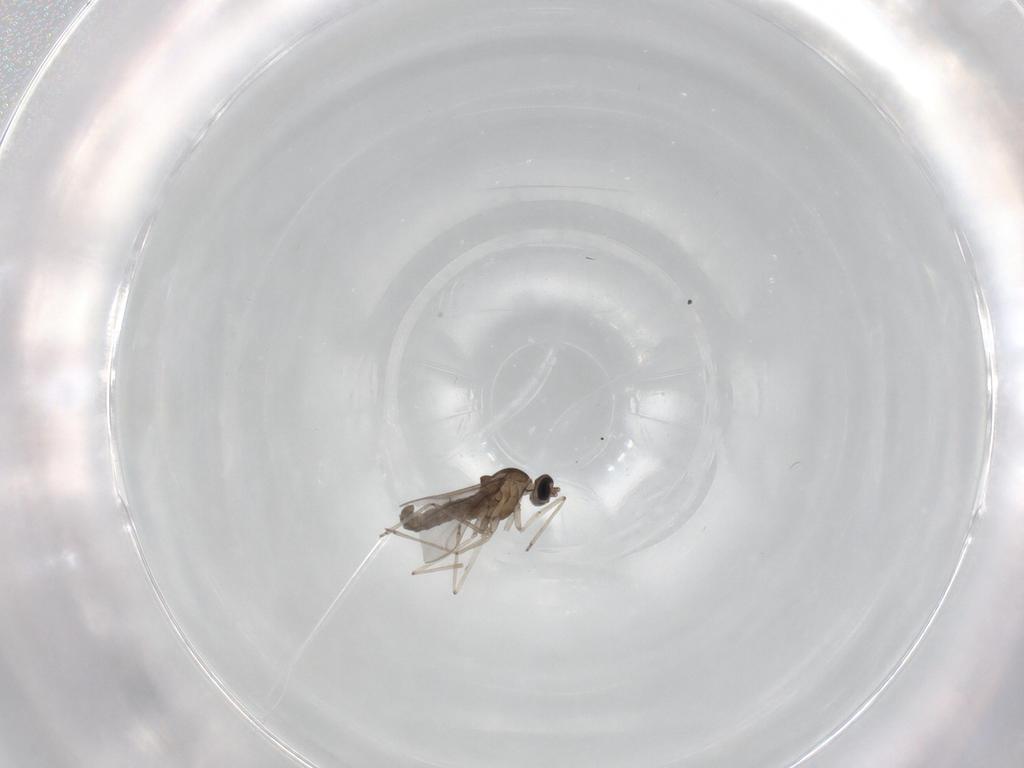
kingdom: Animalia
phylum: Arthropoda
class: Insecta
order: Diptera
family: Cecidomyiidae
